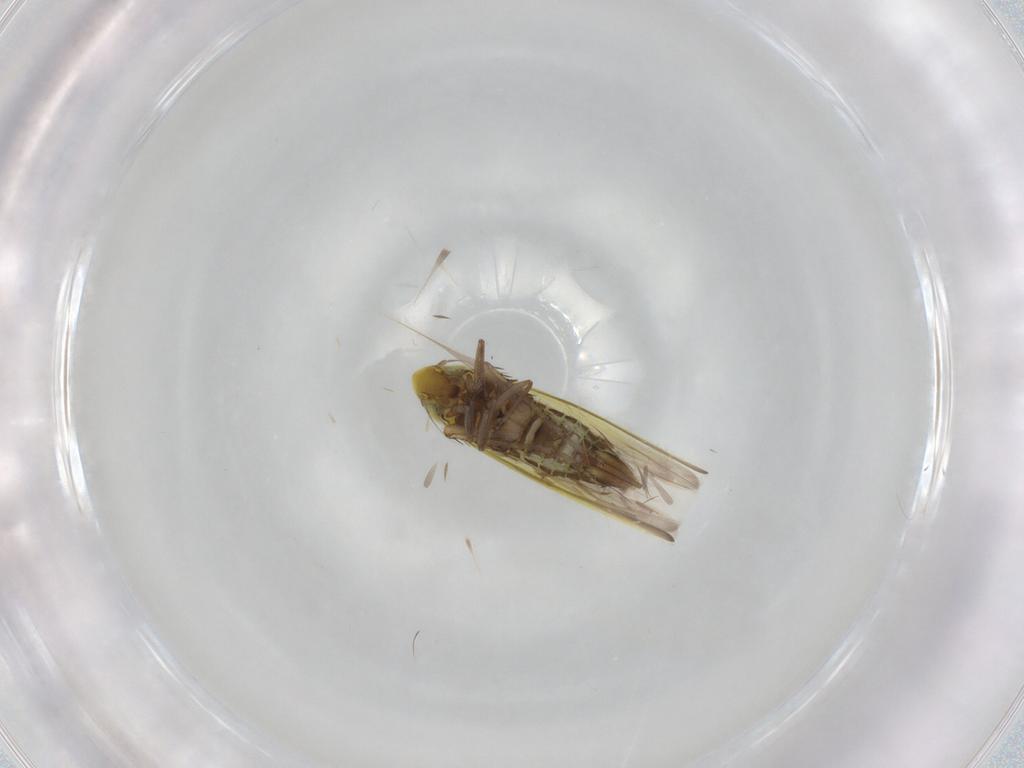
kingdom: Animalia
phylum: Arthropoda
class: Insecta
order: Hemiptera
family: Cicadellidae
